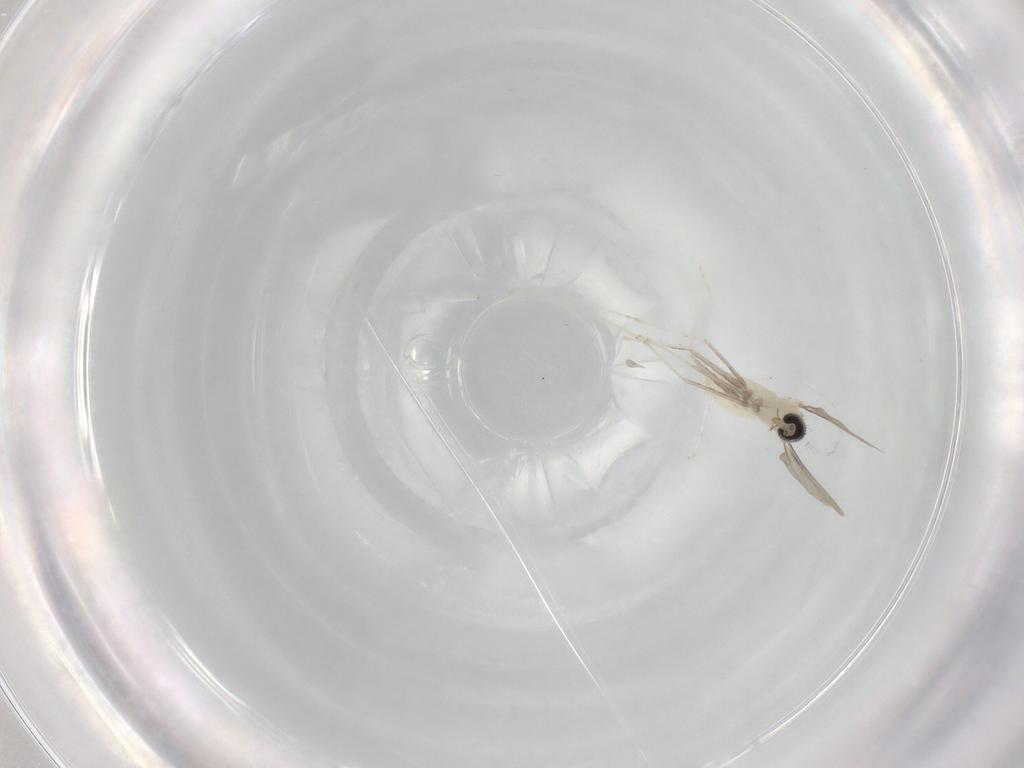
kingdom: Animalia
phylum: Arthropoda
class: Insecta
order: Diptera
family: Cecidomyiidae
